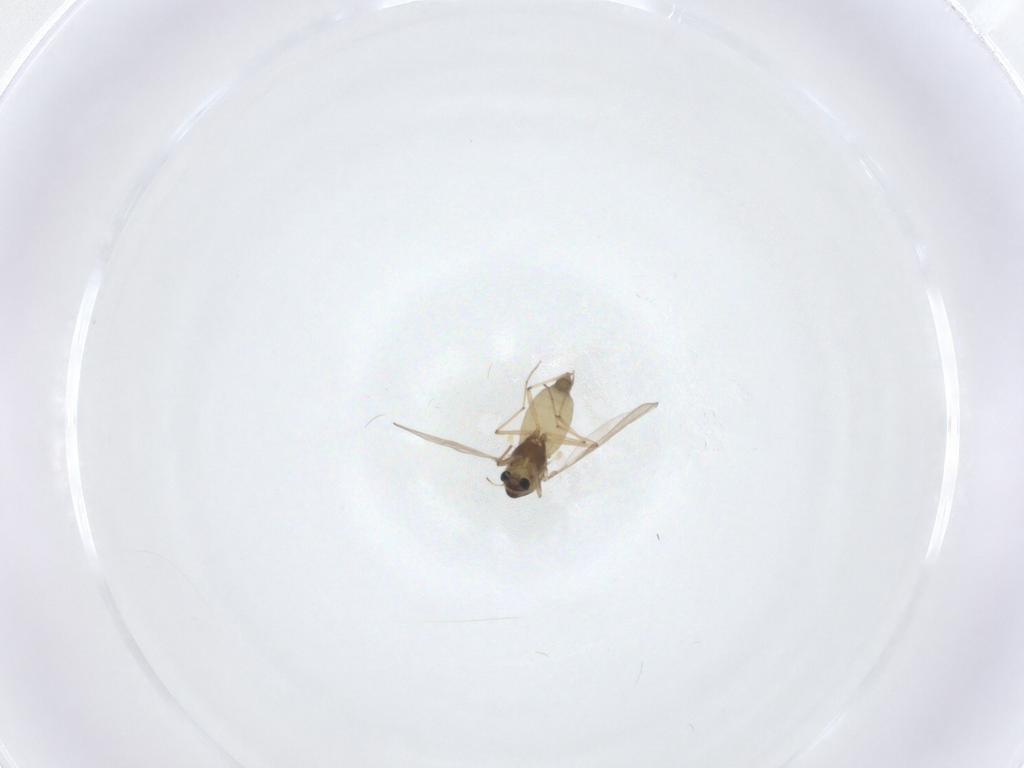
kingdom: Animalia
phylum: Arthropoda
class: Insecta
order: Diptera
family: Chironomidae
